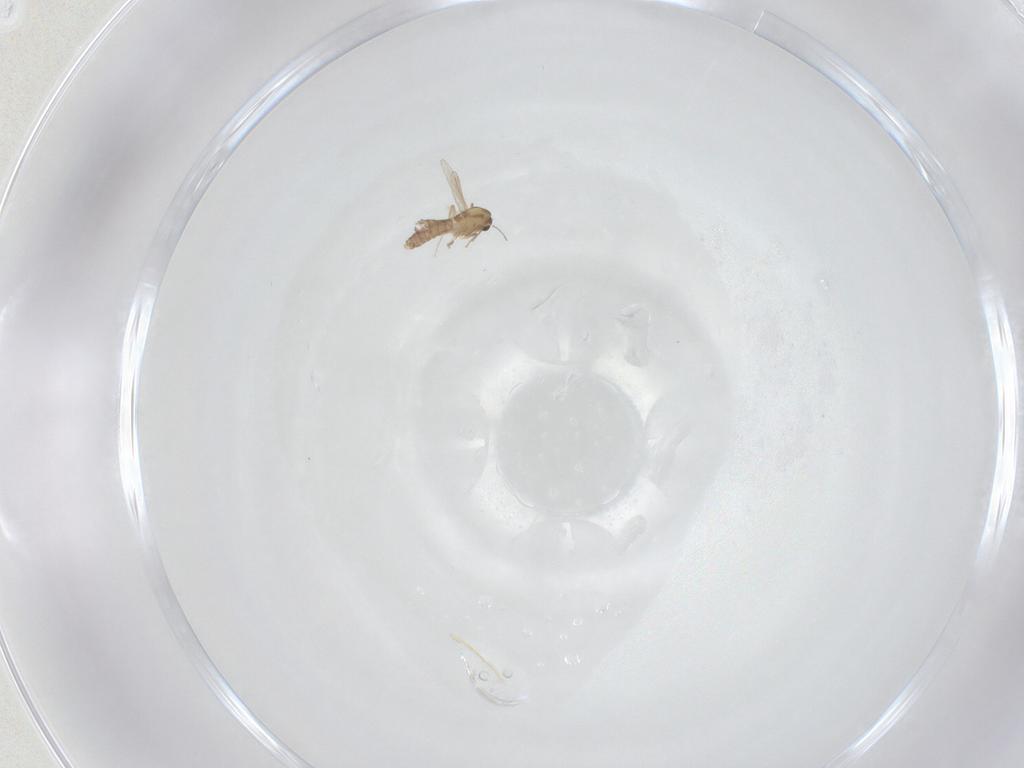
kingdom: Animalia
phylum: Arthropoda
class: Insecta
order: Diptera
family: Chironomidae
